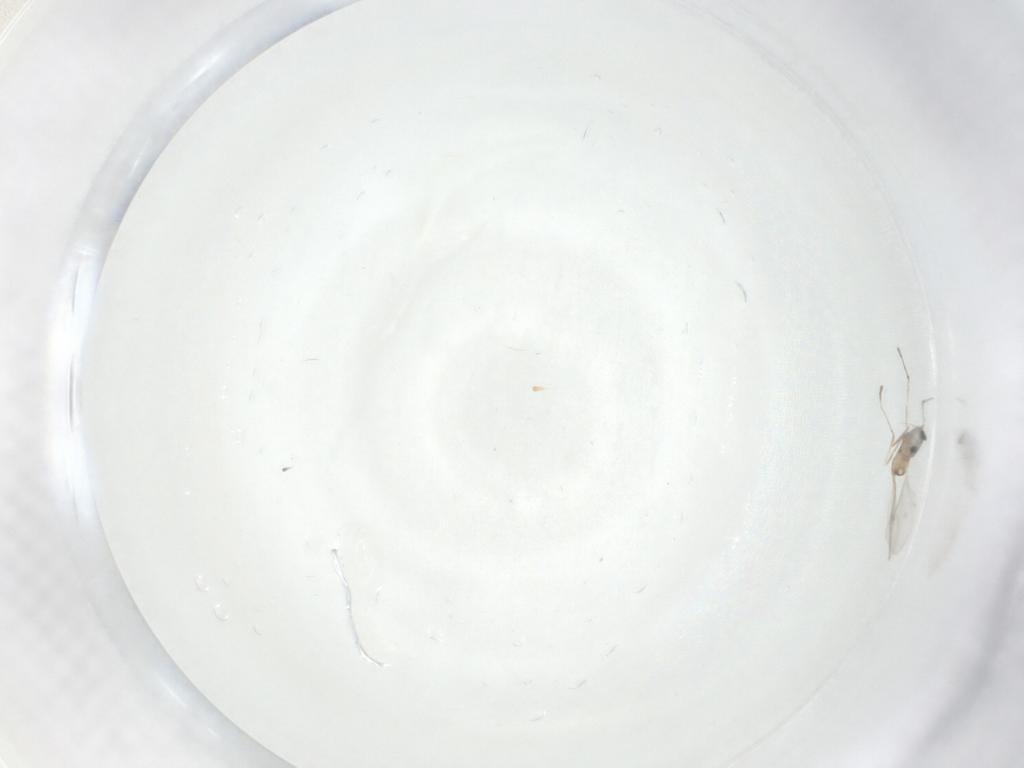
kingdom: Animalia
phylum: Arthropoda
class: Insecta
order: Diptera
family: Cecidomyiidae
